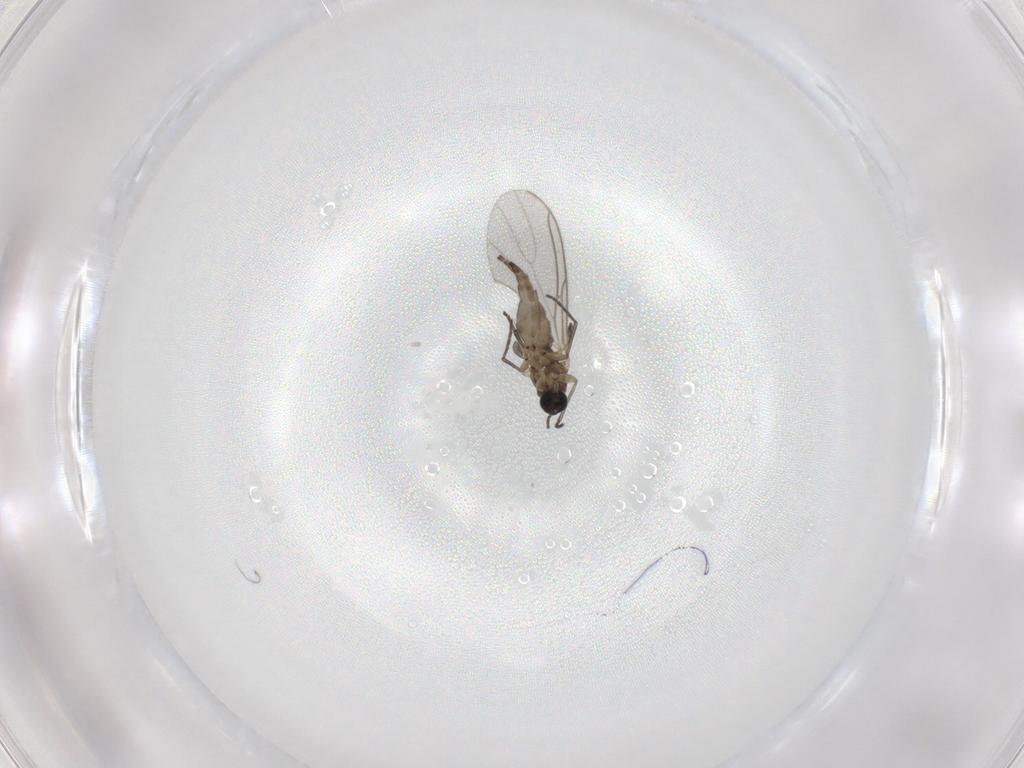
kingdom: Animalia
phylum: Arthropoda
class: Insecta
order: Diptera
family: Sciaridae
